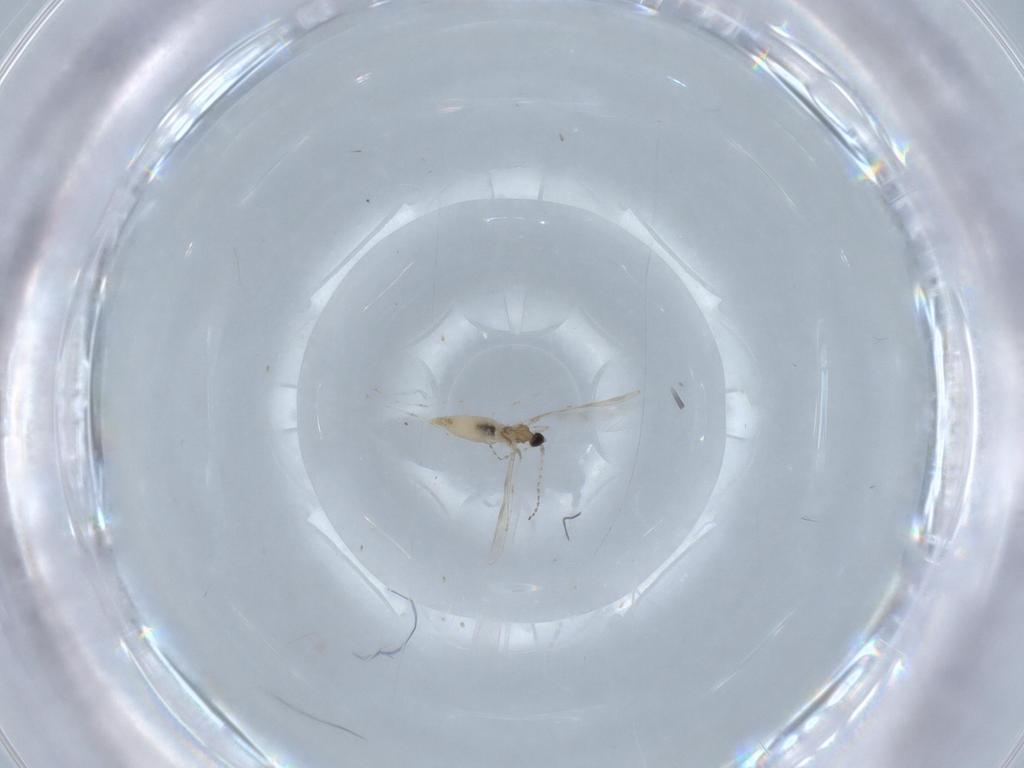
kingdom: Animalia
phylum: Arthropoda
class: Insecta
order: Diptera
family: Cecidomyiidae
